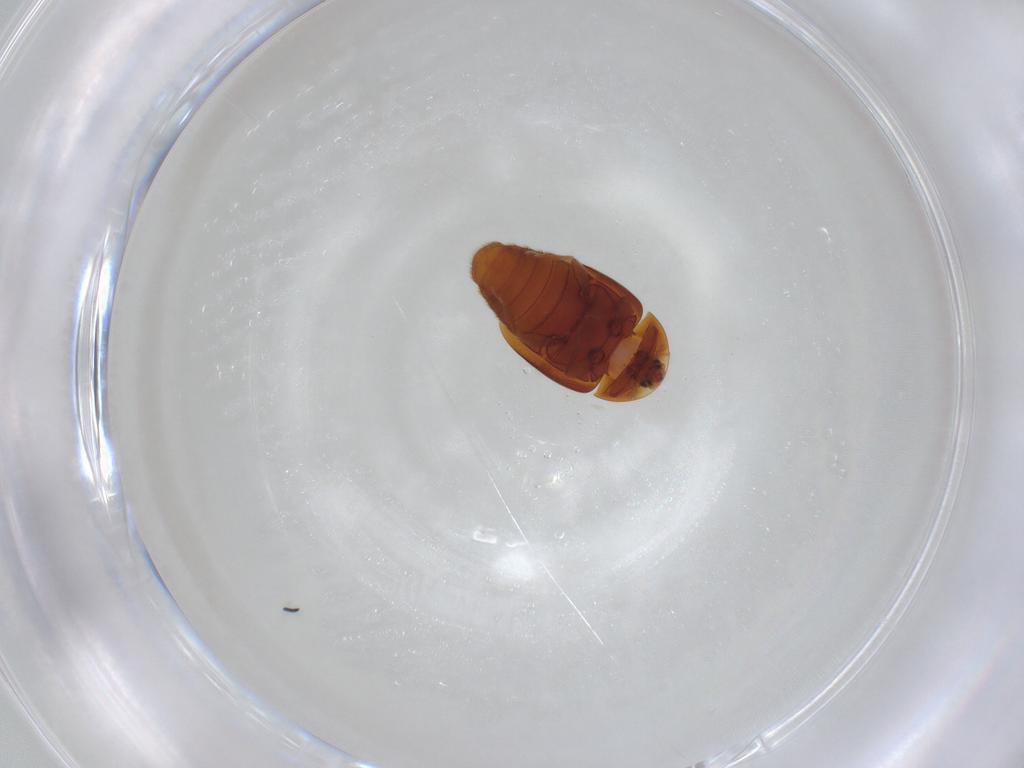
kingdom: Animalia
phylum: Arthropoda
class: Insecta
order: Coleoptera
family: Corylophidae
